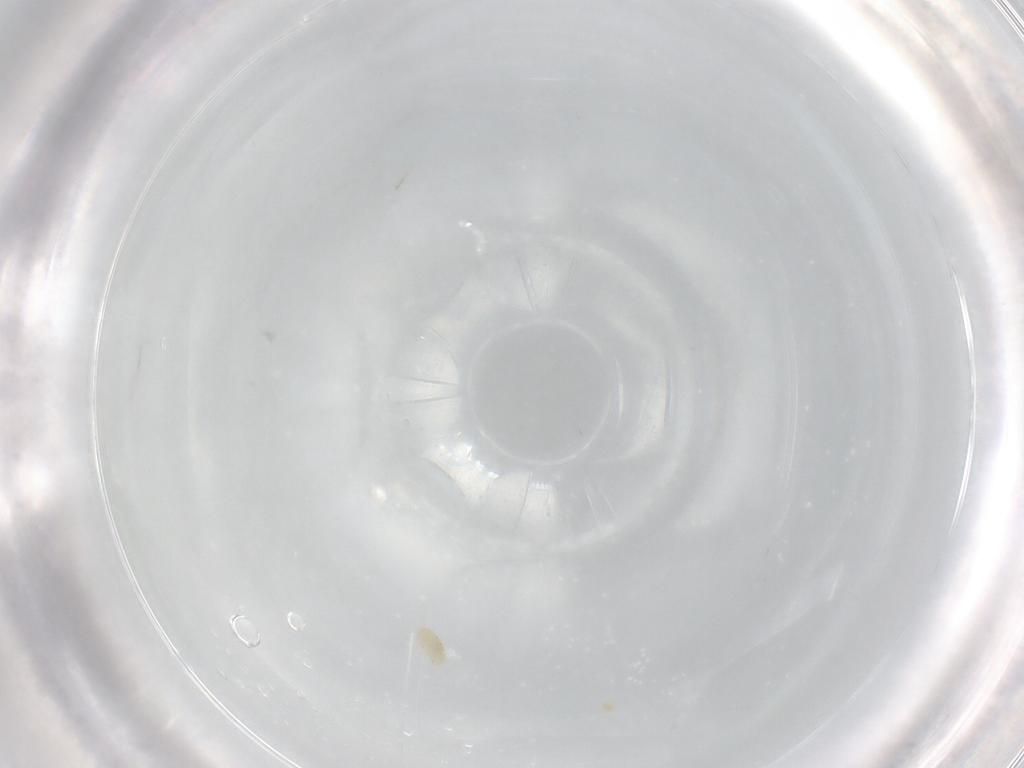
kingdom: Animalia
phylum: Arthropoda
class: Arachnida
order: Trombidiformes
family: Eupodidae
